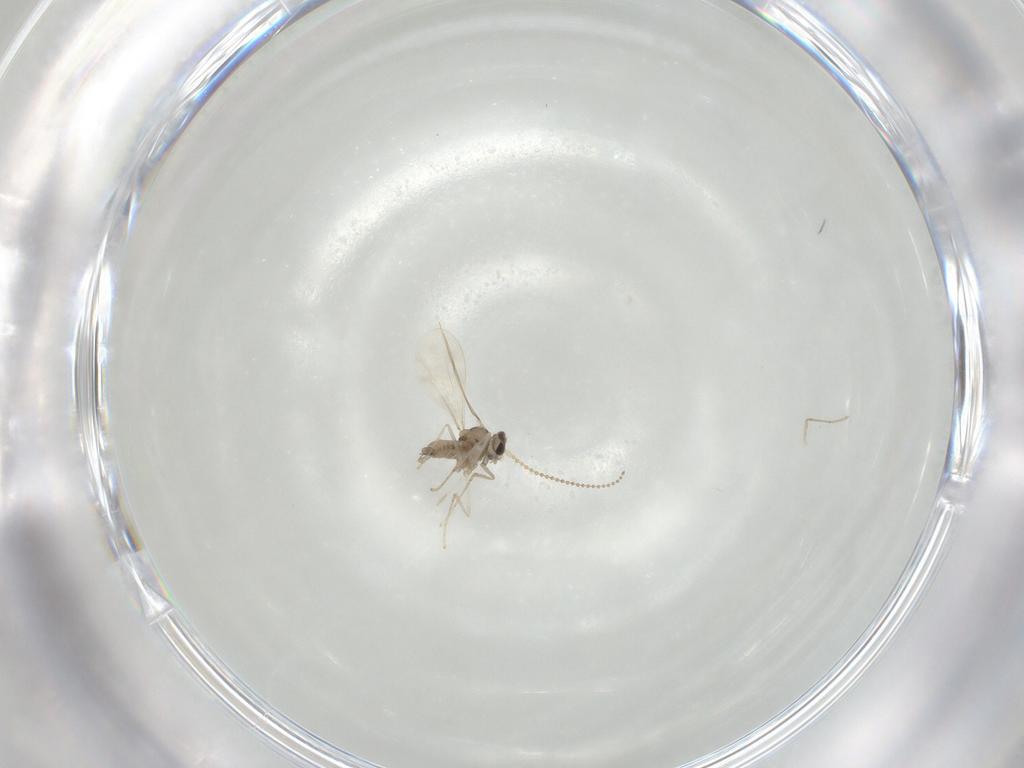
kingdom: Animalia
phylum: Arthropoda
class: Insecta
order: Diptera
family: Cecidomyiidae
